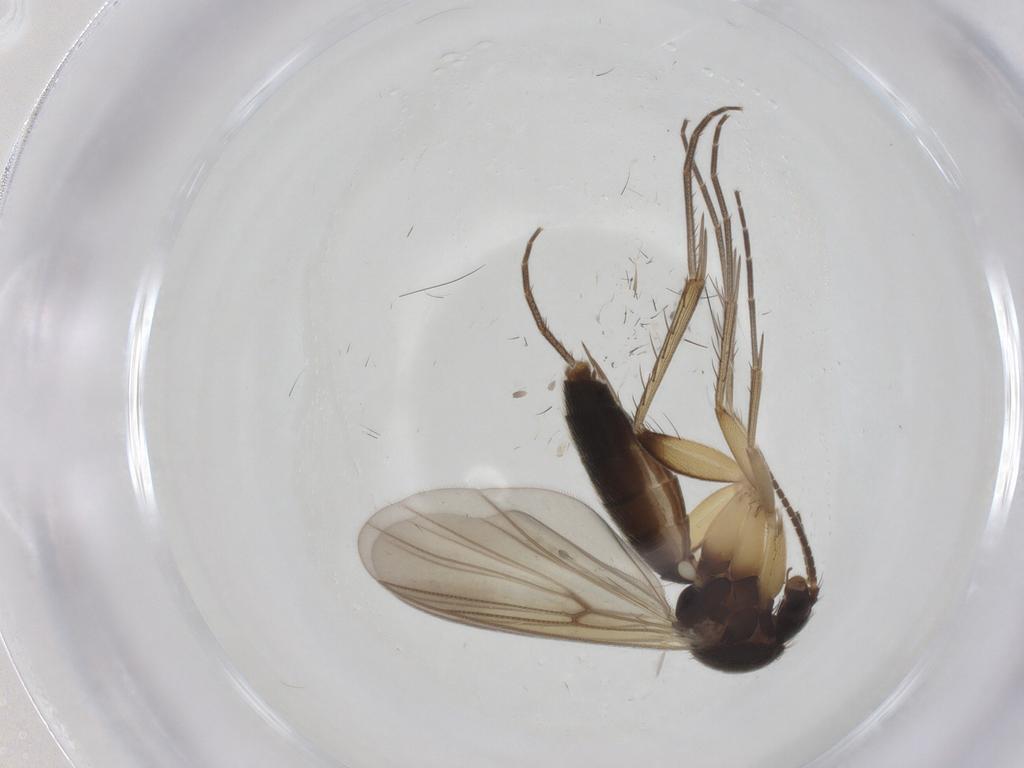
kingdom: Animalia
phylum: Arthropoda
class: Insecta
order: Diptera
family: Mycetophilidae
